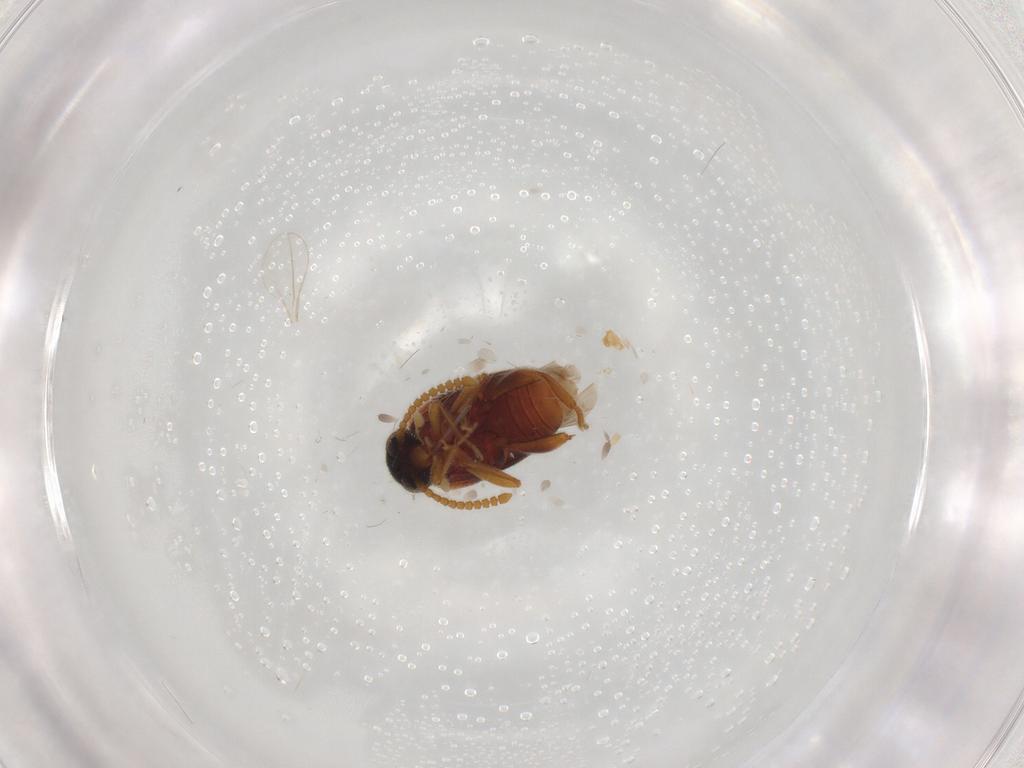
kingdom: Animalia
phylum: Arthropoda
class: Insecta
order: Coleoptera
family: Aderidae
